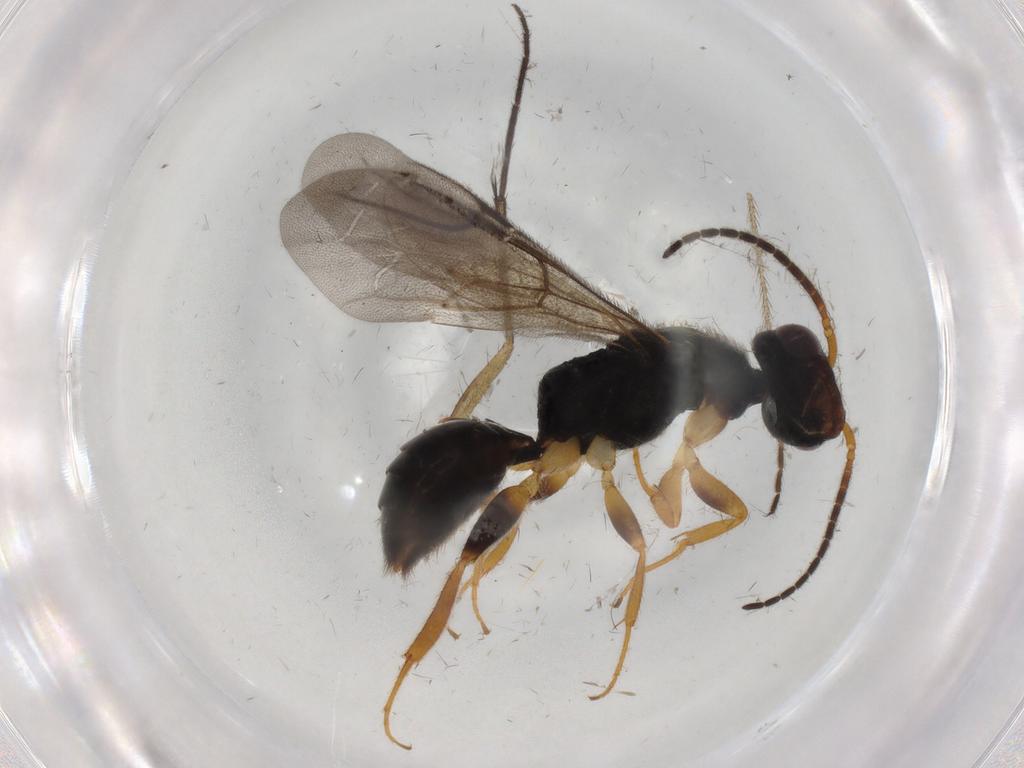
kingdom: Animalia
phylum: Arthropoda
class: Insecta
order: Hymenoptera
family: Bethylidae
